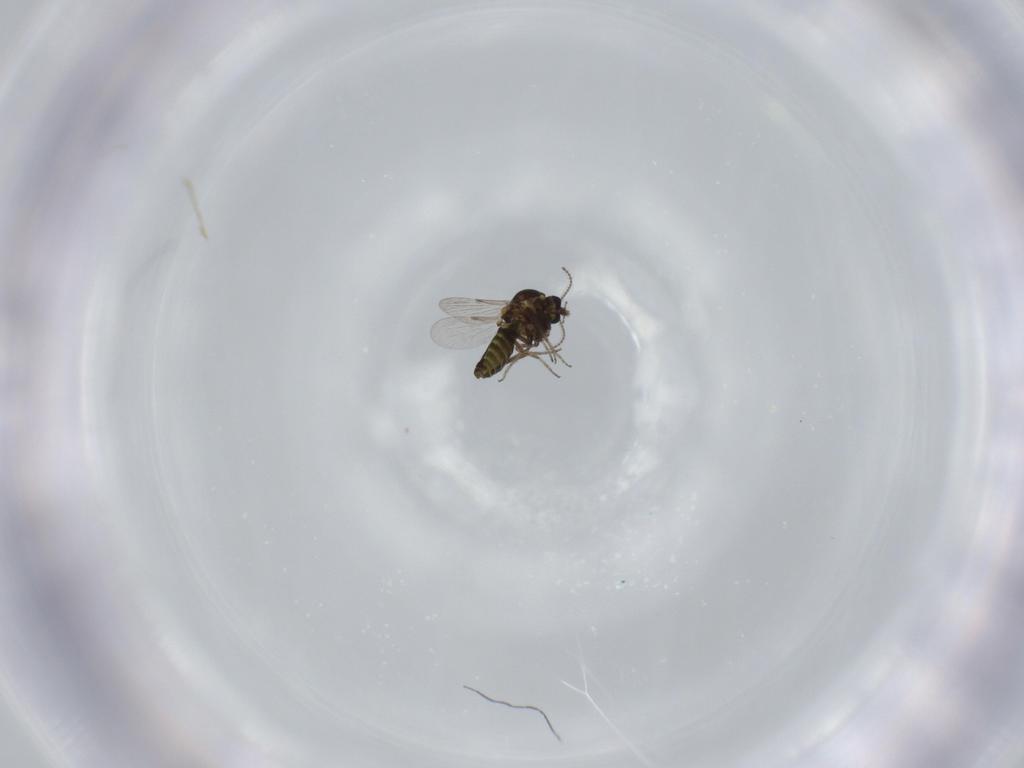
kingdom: Animalia
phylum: Arthropoda
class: Insecta
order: Diptera
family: Ceratopogonidae
